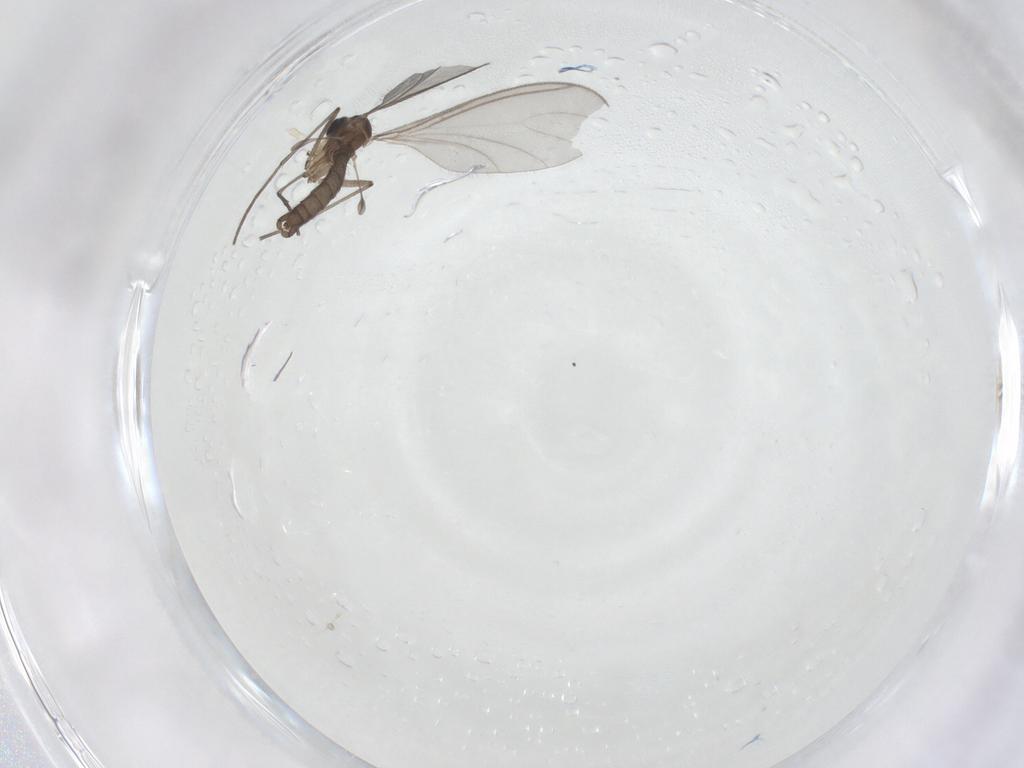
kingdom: Animalia
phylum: Arthropoda
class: Insecta
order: Diptera
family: Sciaridae
